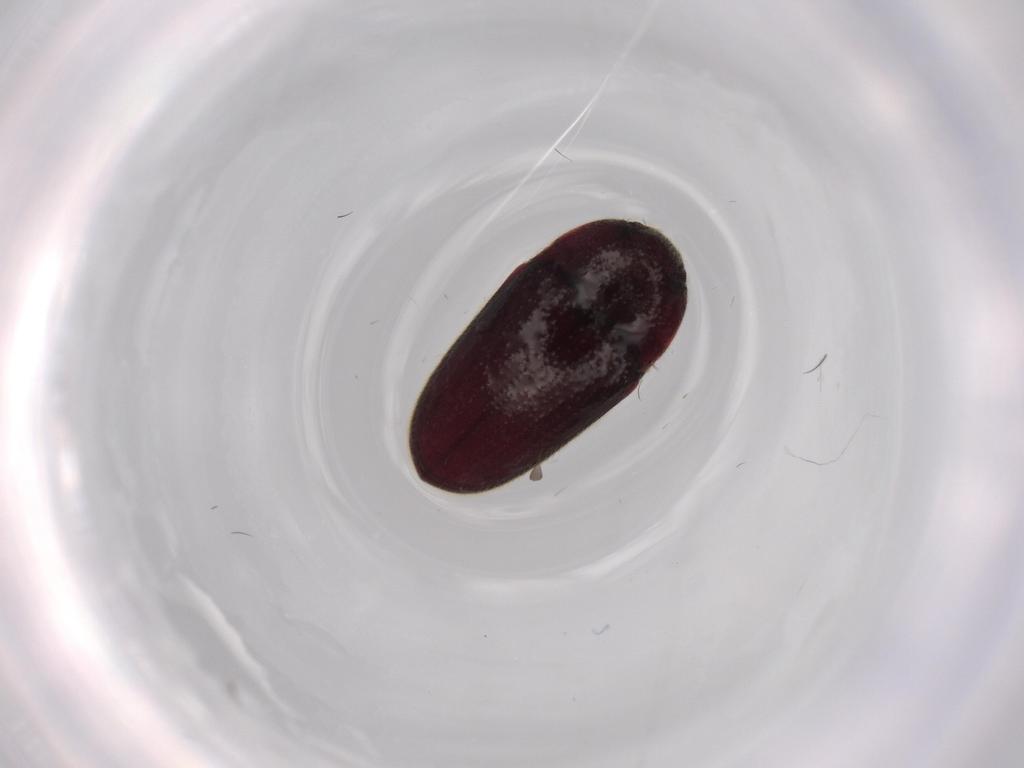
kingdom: Animalia
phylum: Arthropoda
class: Insecta
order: Coleoptera
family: Throscidae
